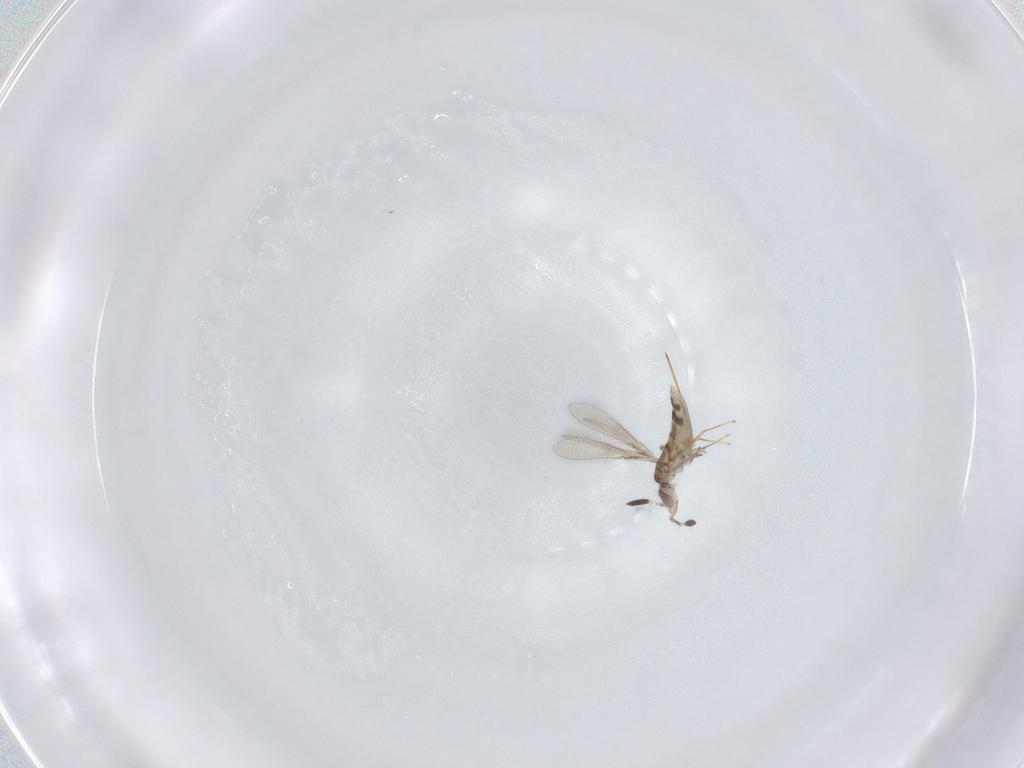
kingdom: Animalia
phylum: Arthropoda
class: Insecta
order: Hymenoptera
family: Mymaridae
